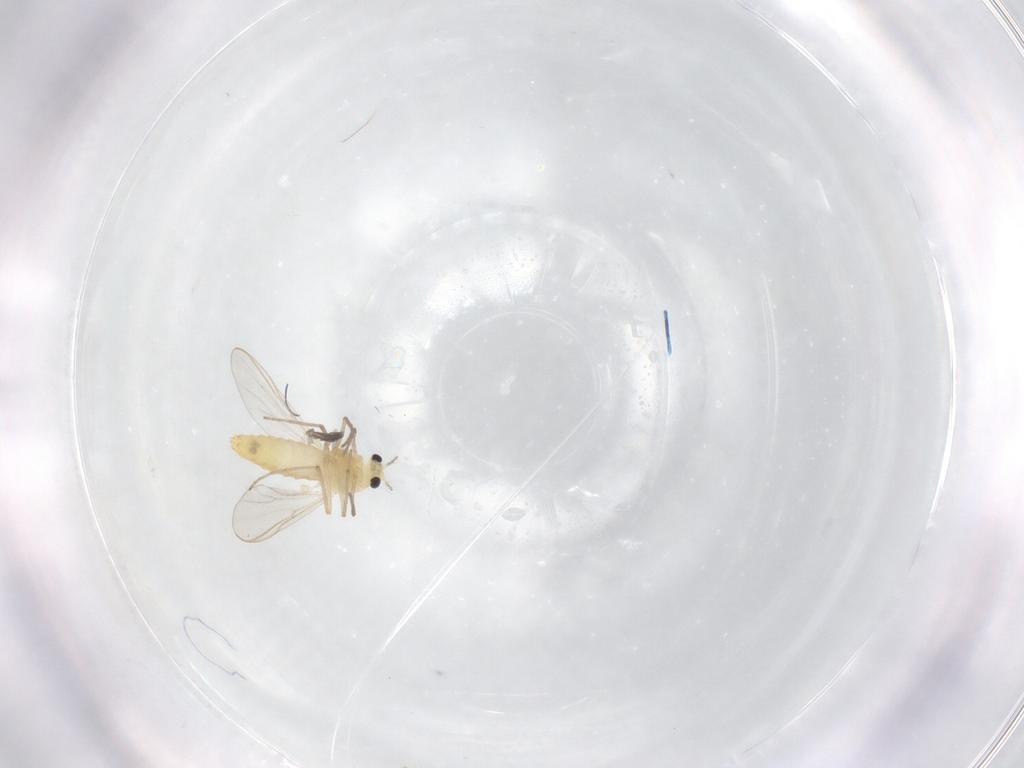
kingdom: Animalia
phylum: Arthropoda
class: Insecta
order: Diptera
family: Chironomidae
